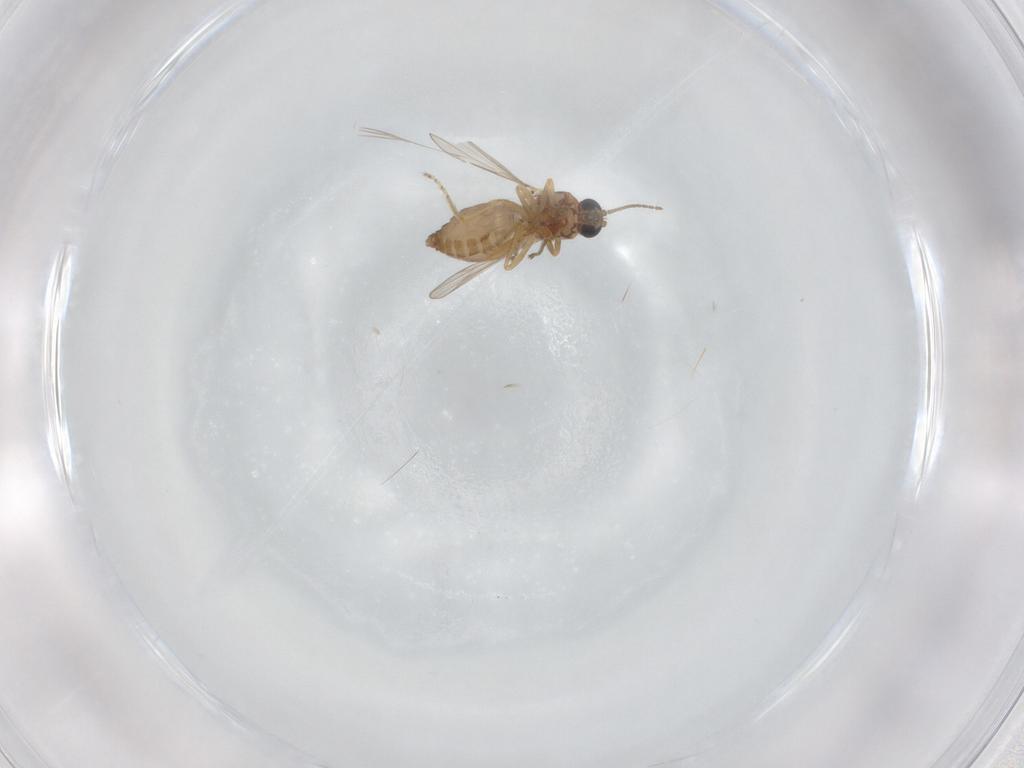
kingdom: Animalia
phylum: Arthropoda
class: Insecta
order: Diptera
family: Ceratopogonidae
